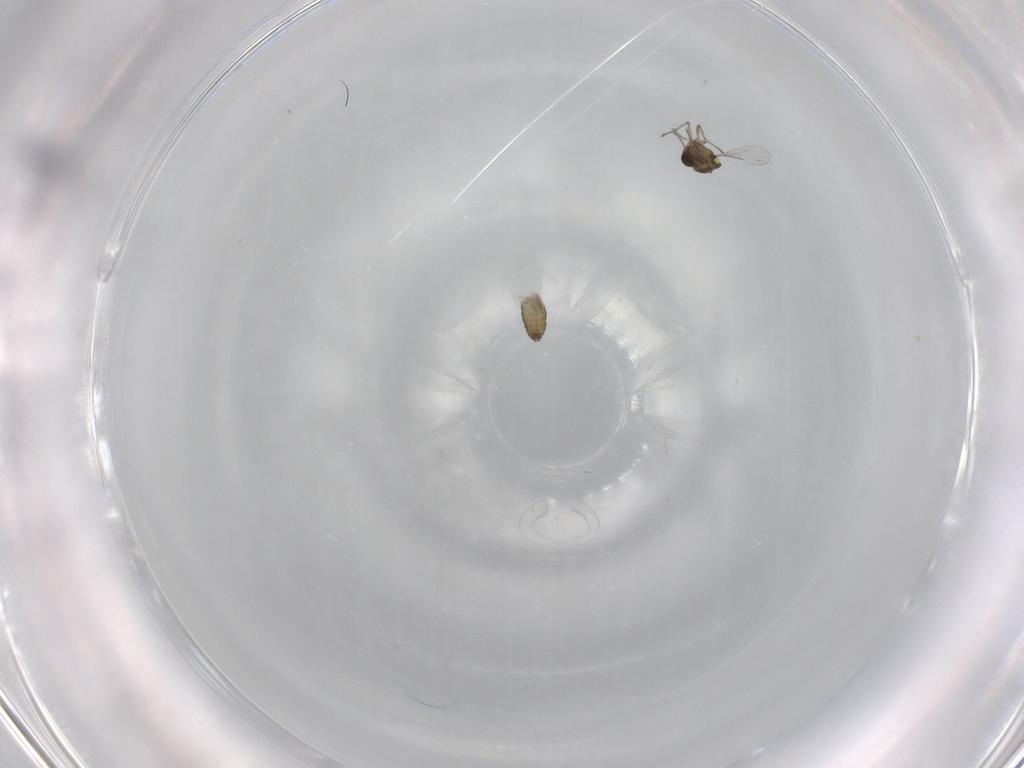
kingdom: Animalia
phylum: Arthropoda
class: Insecta
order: Diptera
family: Ceratopogonidae
